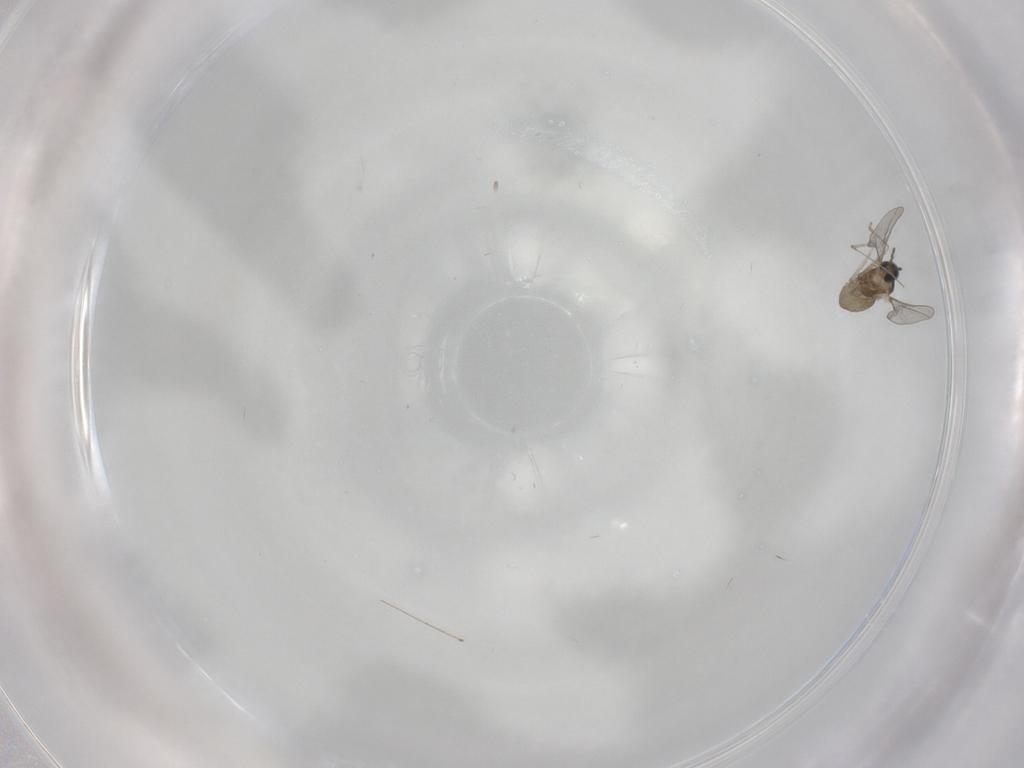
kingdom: Animalia
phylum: Arthropoda
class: Insecta
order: Diptera
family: Cecidomyiidae
